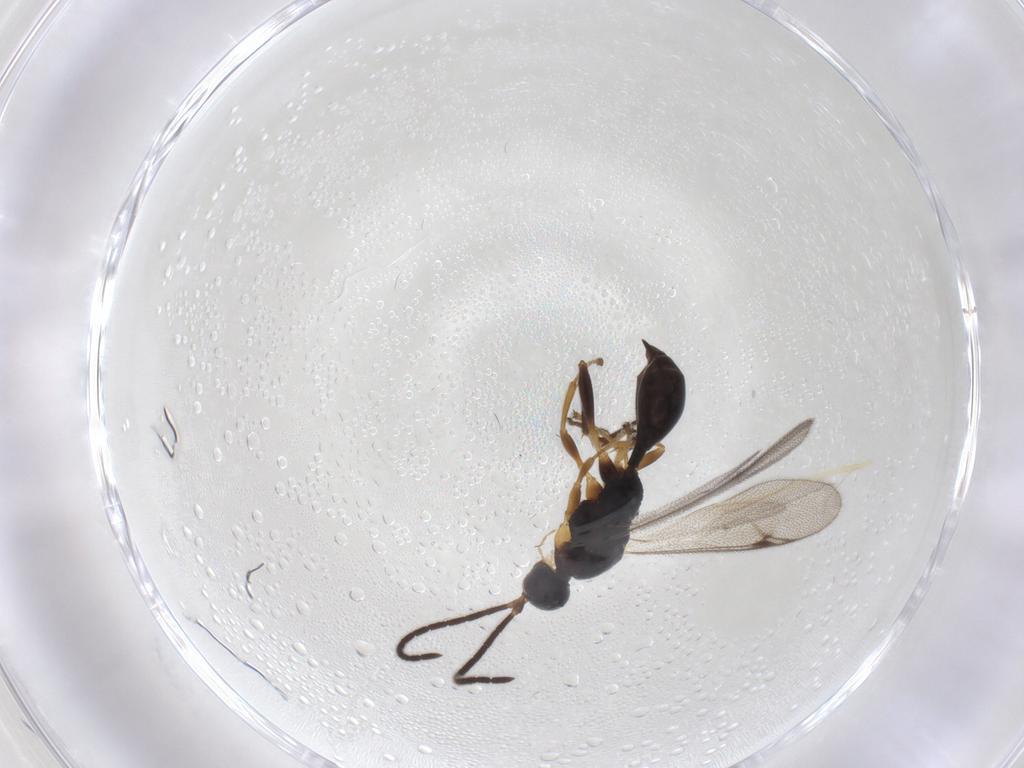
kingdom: Animalia
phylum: Arthropoda
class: Insecta
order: Hymenoptera
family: Proctotrupidae
